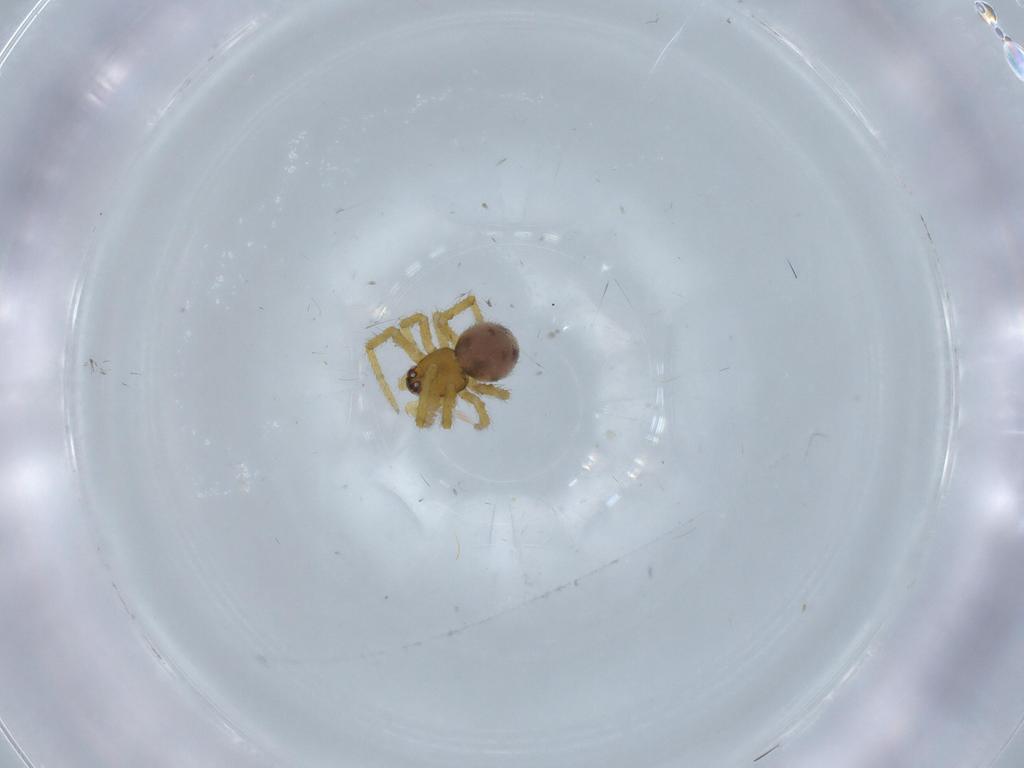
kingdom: Animalia
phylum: Arthropoda
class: Arachnida
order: Araneae
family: Theridiidae
